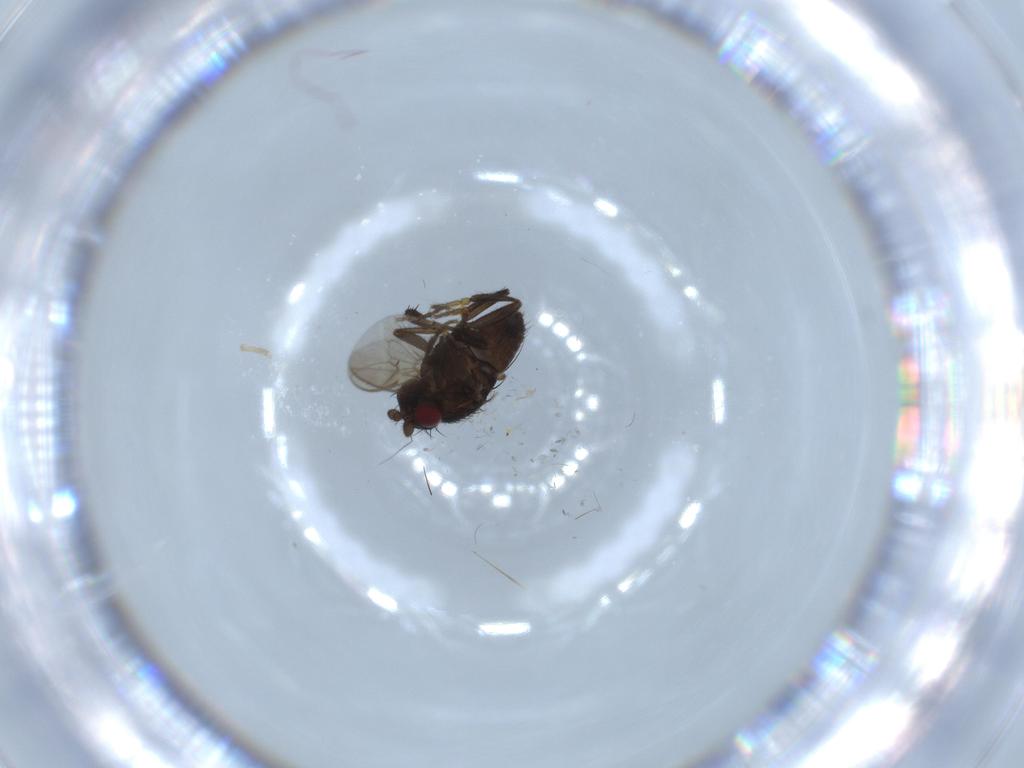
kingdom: Animalia
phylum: Arthropoda
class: Insecta
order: Diptera
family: Sphaeroceridae
